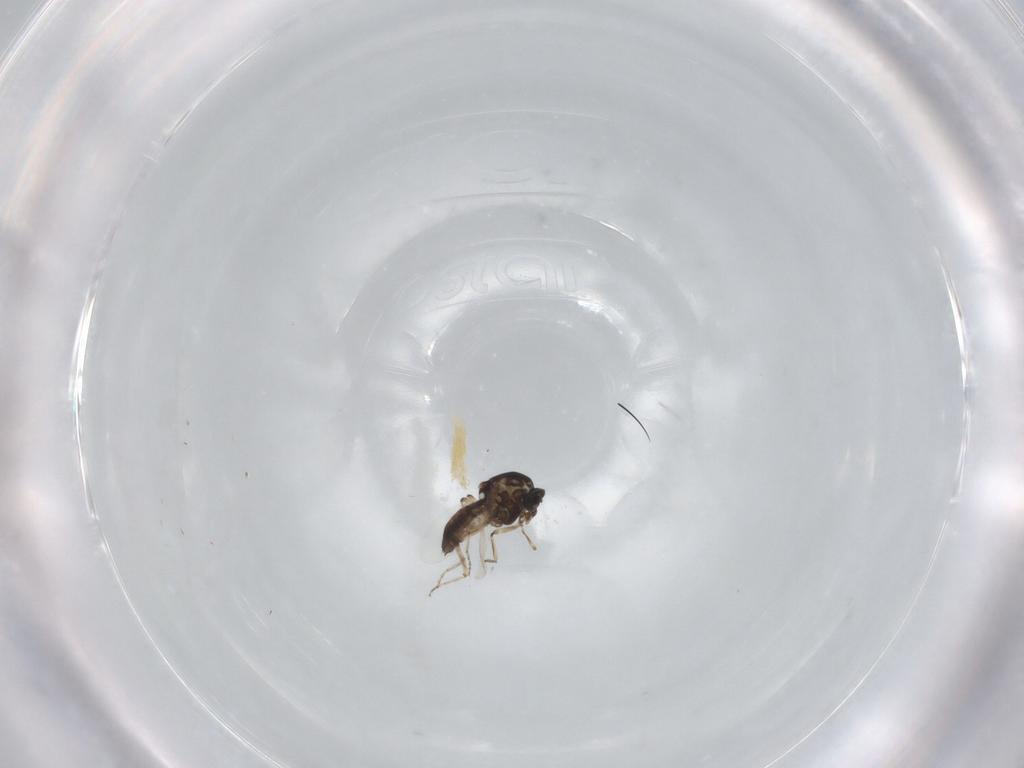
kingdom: Animalia
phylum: Arthropoda
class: Insecta
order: Diptera
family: Ceratopogonidae
